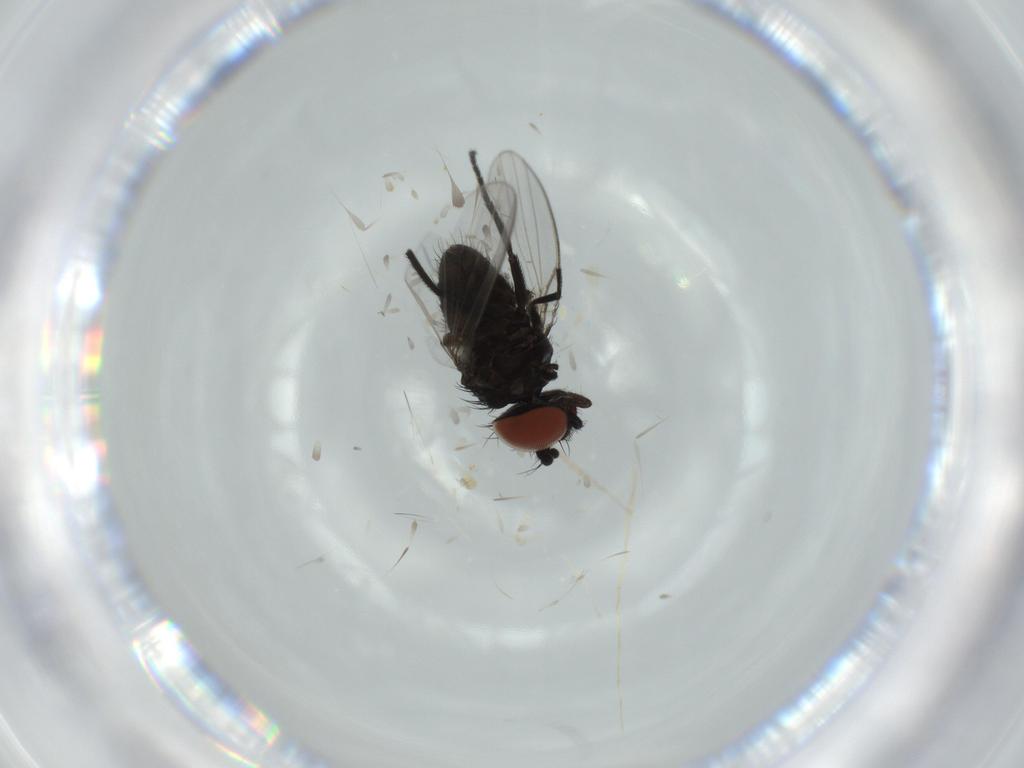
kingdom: Animalia
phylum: Arthropoda
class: Insecta
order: Diptera
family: Milichiidae
